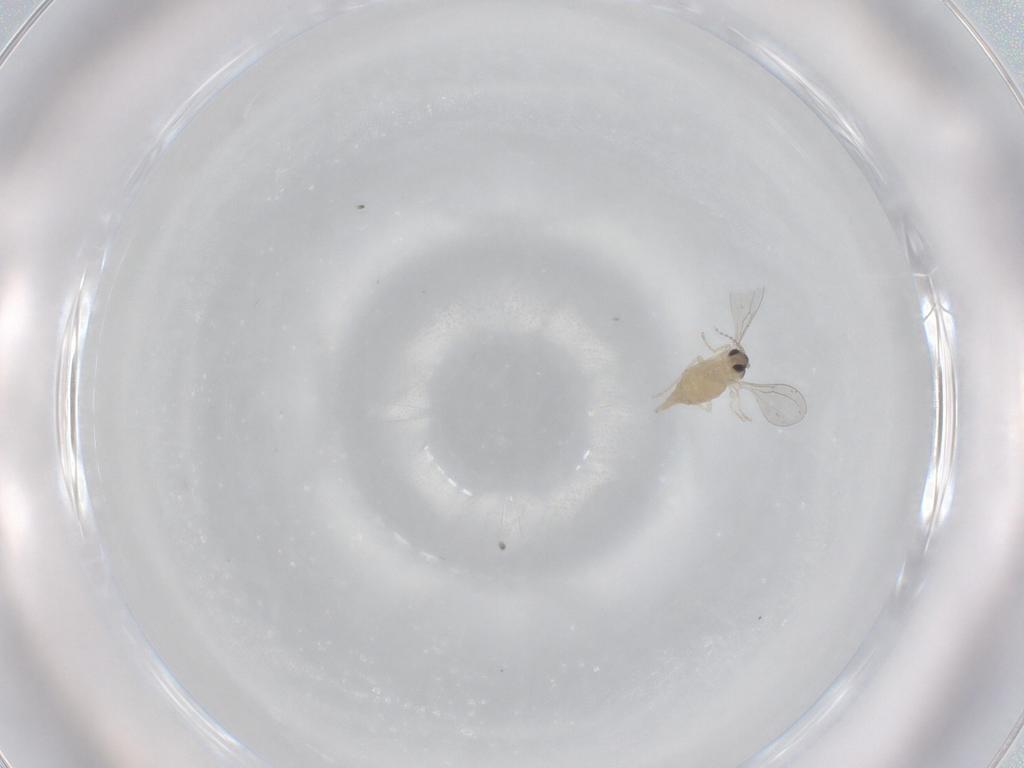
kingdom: Animalia
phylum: Arthropoda
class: Insecta
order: Diptera
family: Cecidomyiidae
